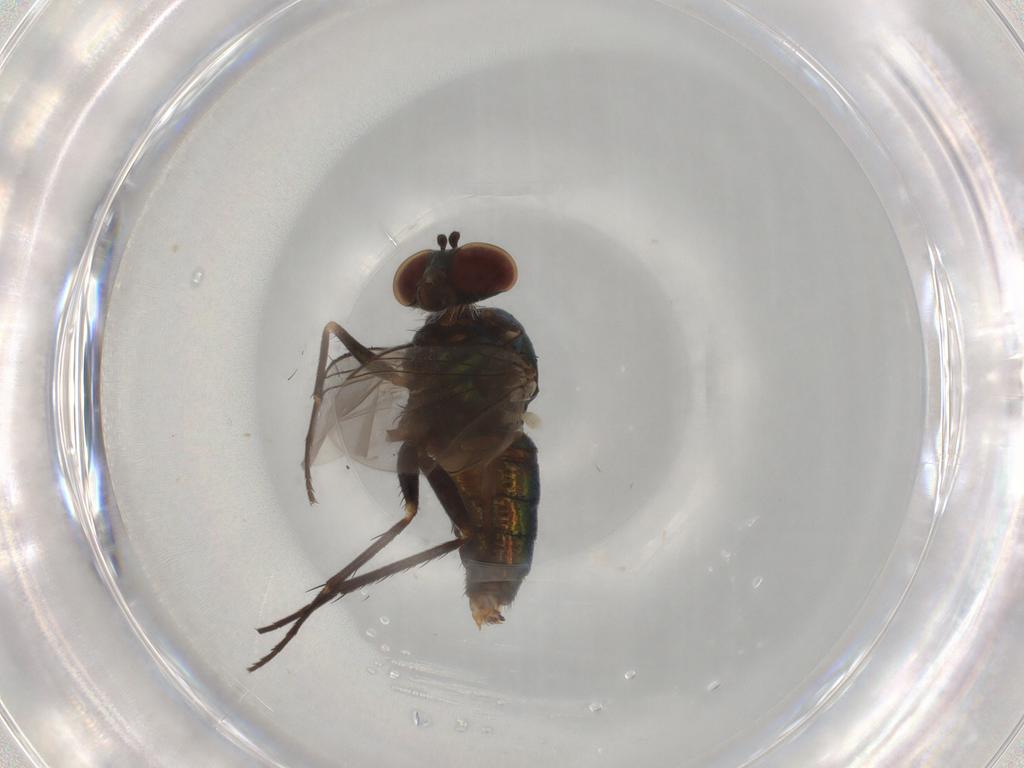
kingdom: Animalia
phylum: Arthropoda
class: Insecta
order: Diptera
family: Dolichopodidae
